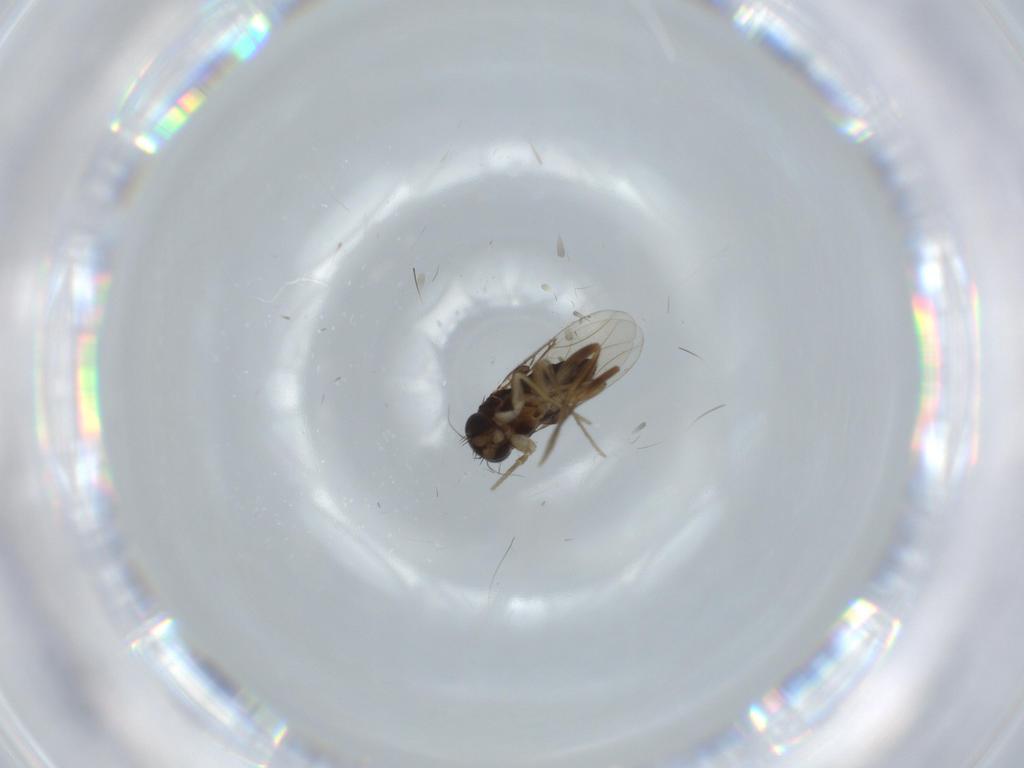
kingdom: Animalia
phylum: Arthropoda
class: Insecta
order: Diptera
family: Phoridae
